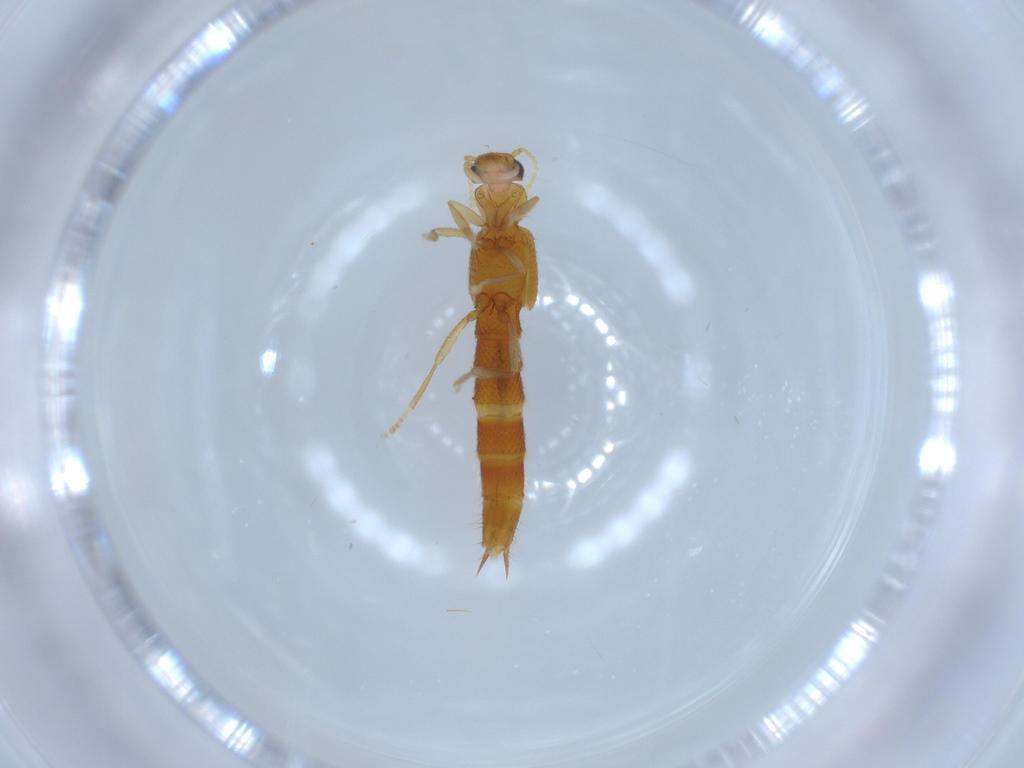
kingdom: Animalia
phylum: Arthropoda
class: Insecta
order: Coleoptera
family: Staphylinidae
